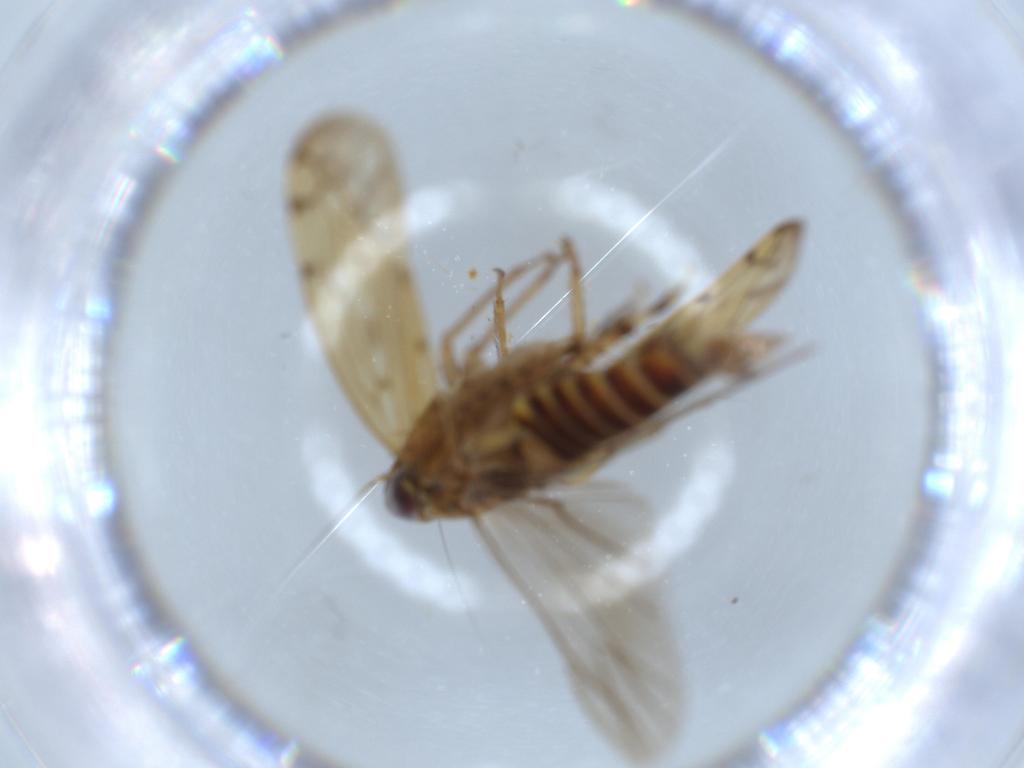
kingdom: Animalia
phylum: Arthropoda
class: Insecta
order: Hemiptera
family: Cicadellidae
